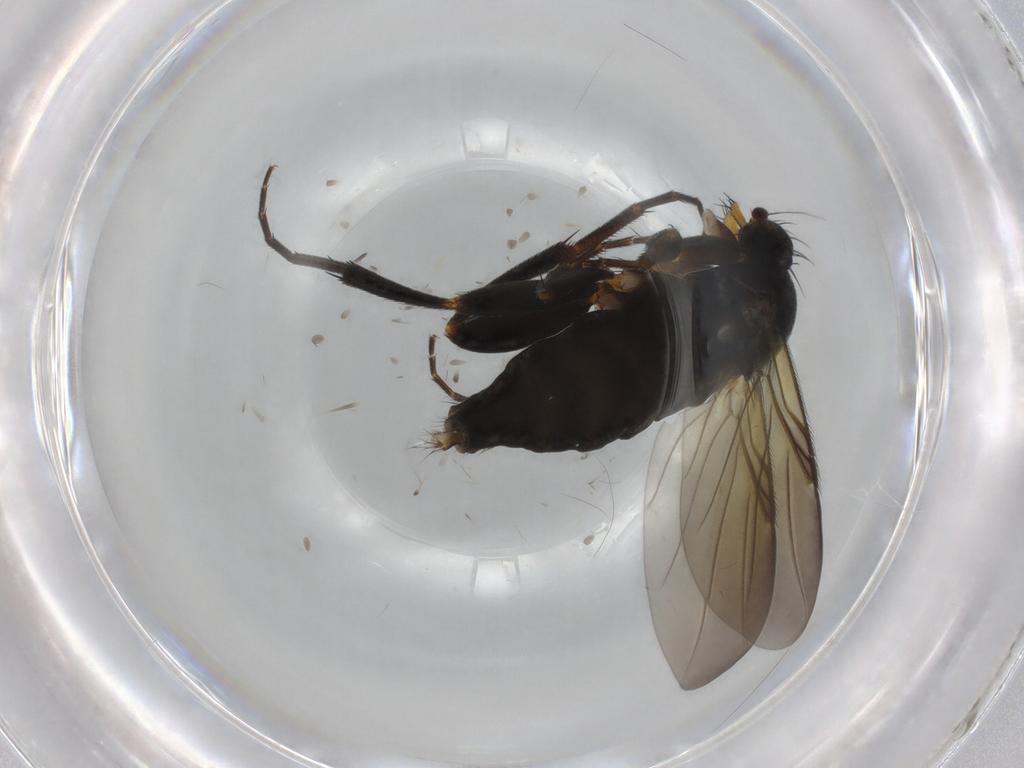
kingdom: Animalia
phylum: Arthropoda
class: Insecta
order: Diptera
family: Phoridae
